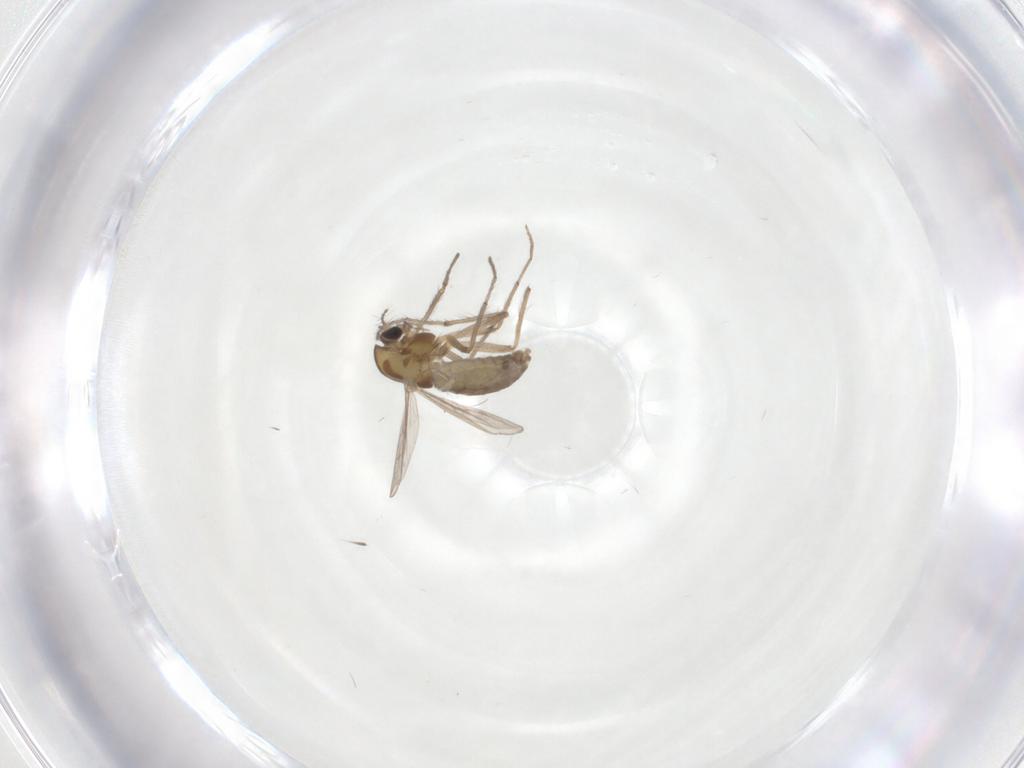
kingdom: Animalia
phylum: Arthropoda
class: Insecta
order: Diptera
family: Chironomidae
